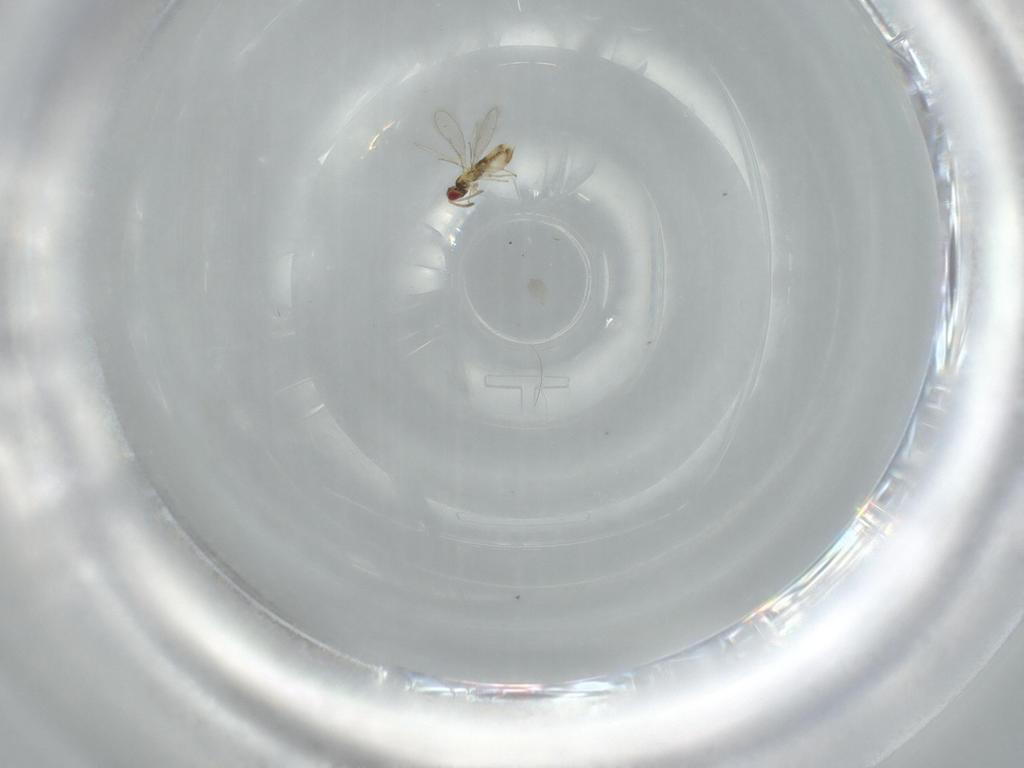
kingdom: Animalia
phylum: Arthropoda
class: Insecta
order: Hymenoptera
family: Aphelinidae
